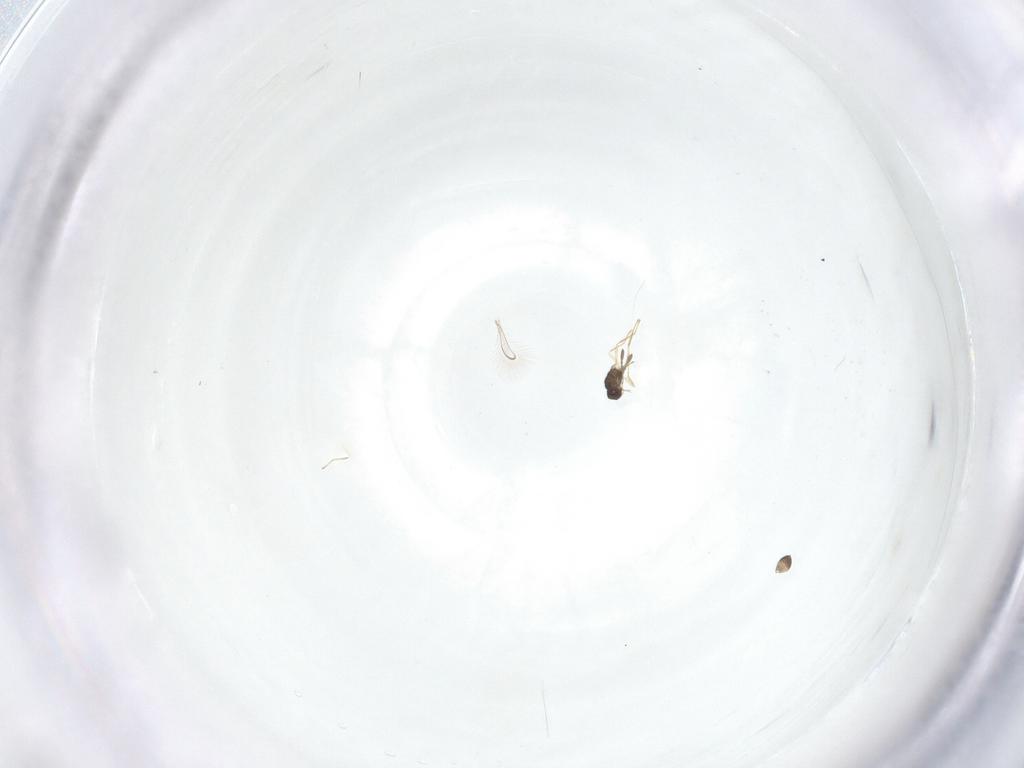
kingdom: Animalia
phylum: Arthropoda
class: Insecta
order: Hymenoptera
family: Mymaridae
